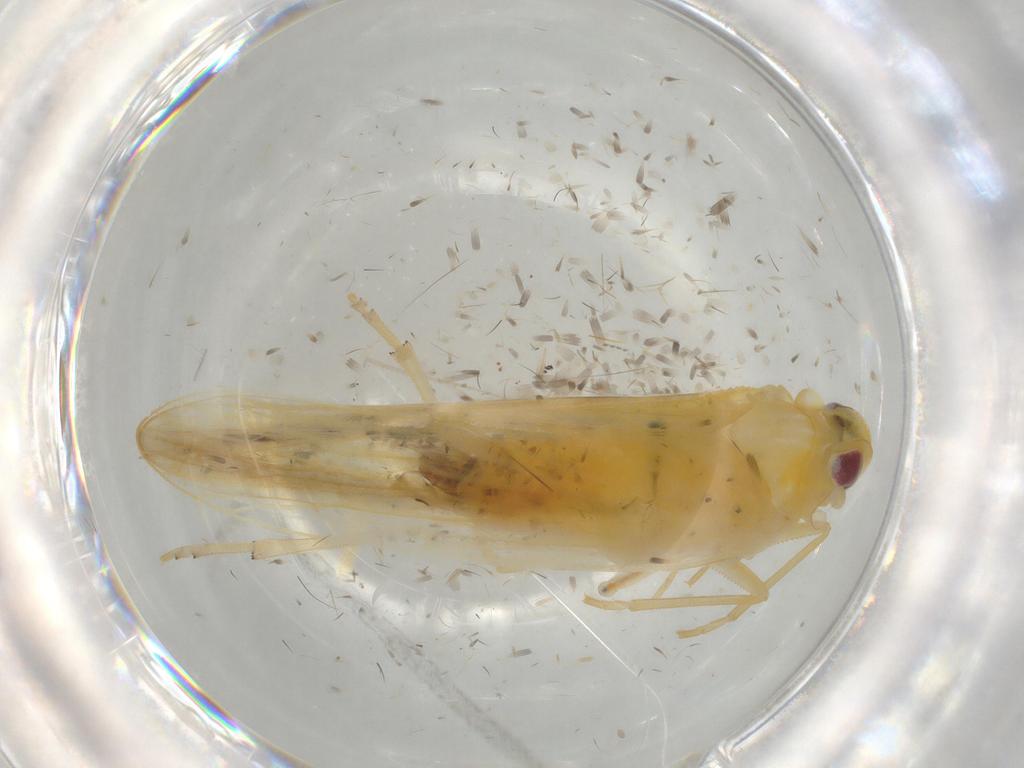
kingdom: Animalia
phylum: Arthropoda
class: Insecta
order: Hemiptera
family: Derbidae
